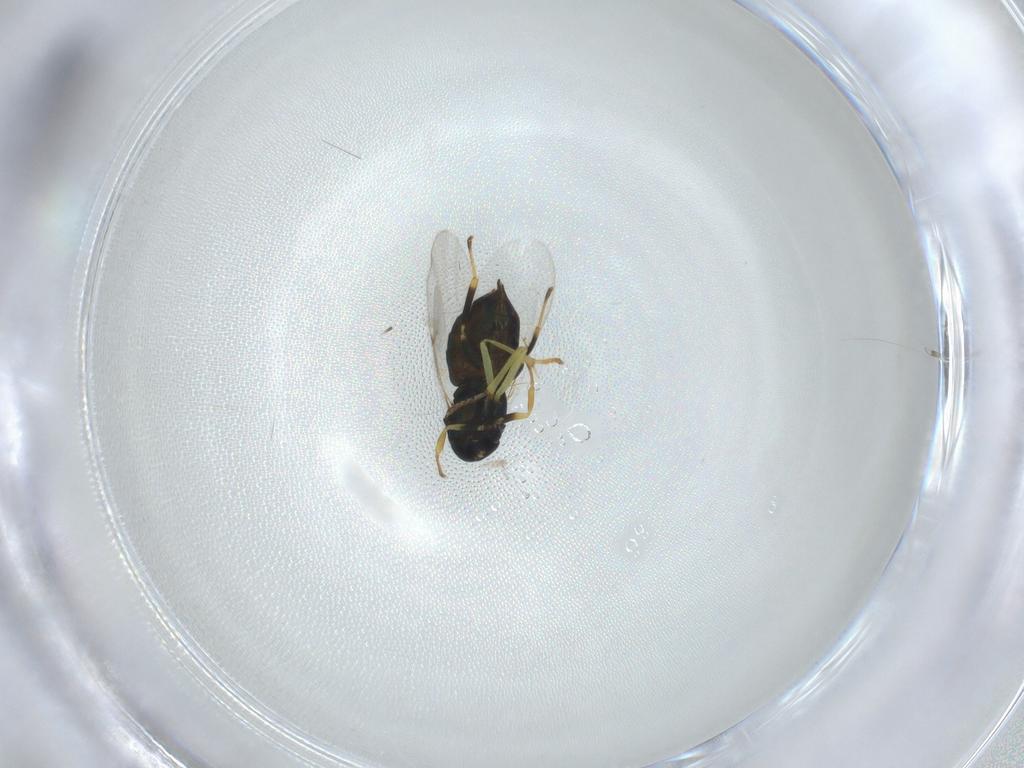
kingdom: Animalia
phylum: Arthropoda
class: Insecta
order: Hymenoptera
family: Encyrtidae
